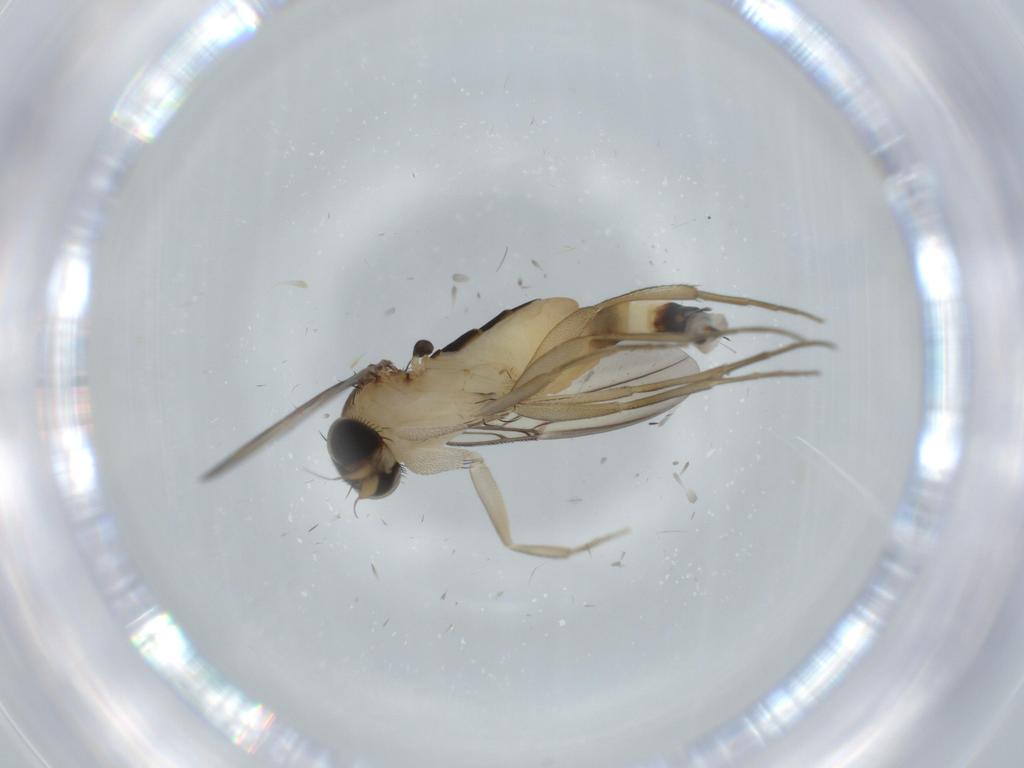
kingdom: Animalia
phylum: Arthropoda
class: Insecta
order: Diptera
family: Phoridae
